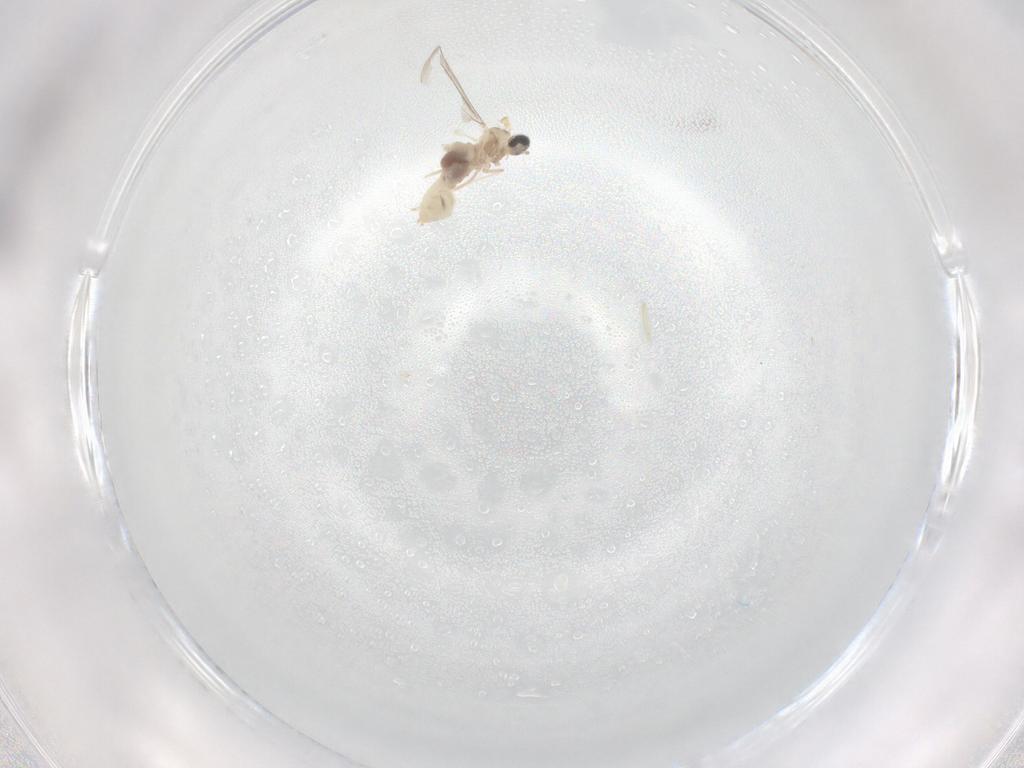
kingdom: Animalia
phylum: Arthropoda
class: Insecta
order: Diptera
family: Cecidomyiidae
